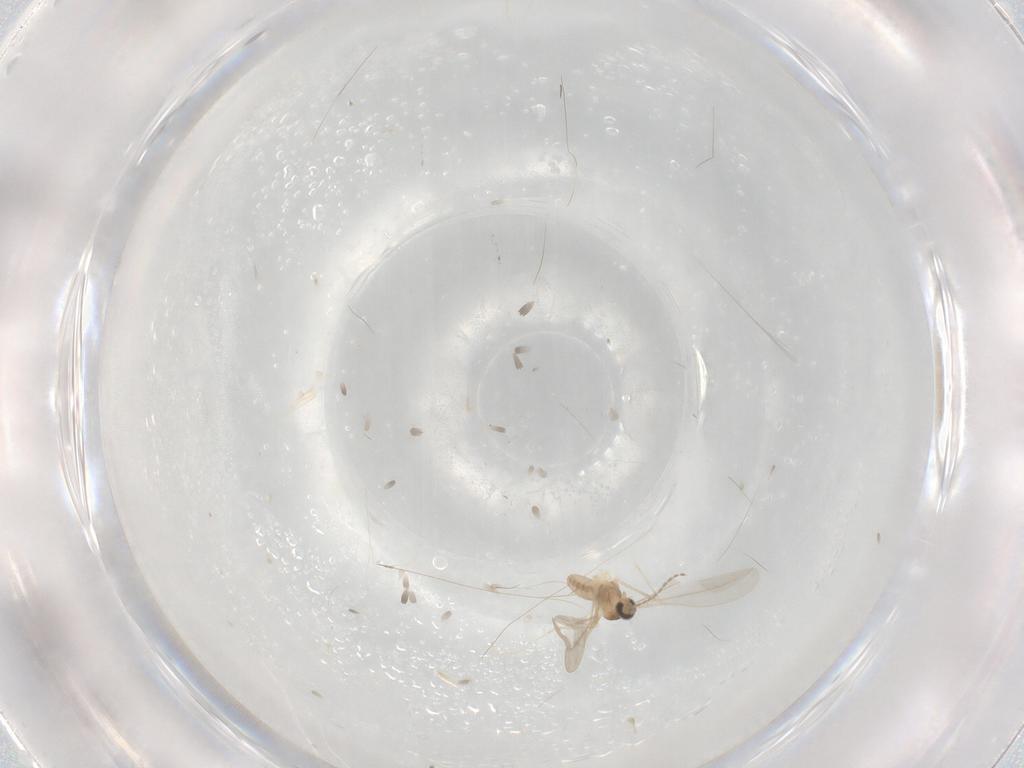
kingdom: Animalia
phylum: Arthropoda
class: Insecta
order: Diptera
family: Cecidomyiidae
